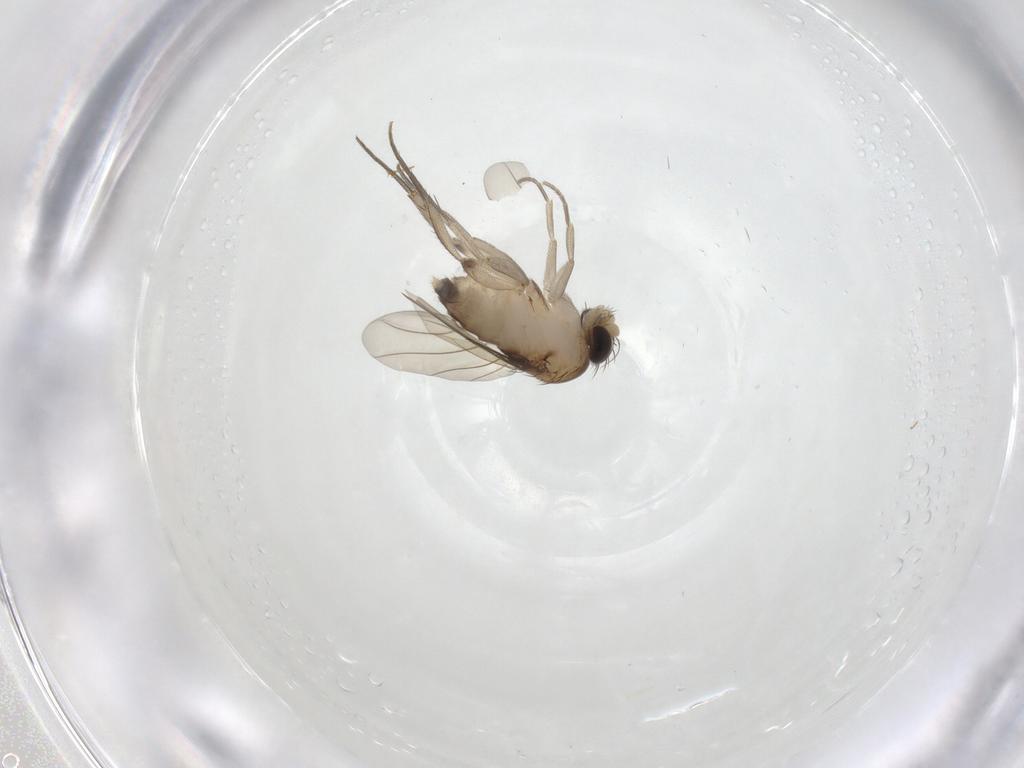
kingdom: Animalia
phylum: Arthropoda
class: Insecta
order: Diptera
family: Phoridae
